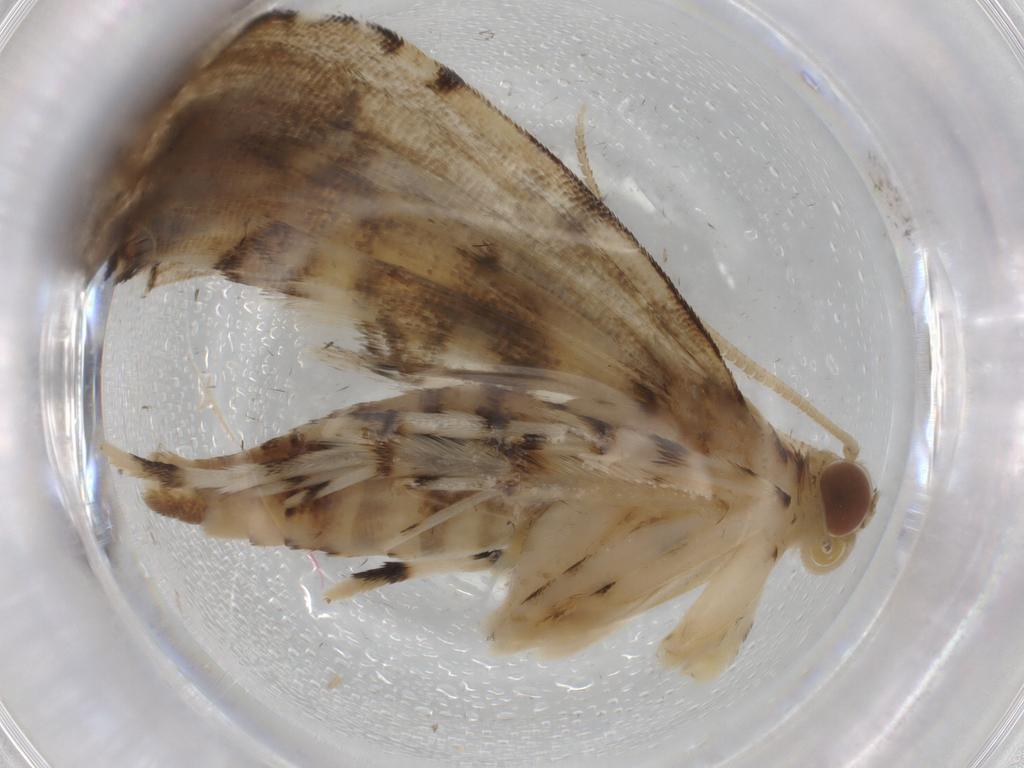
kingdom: Animalia
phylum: Arthropoda
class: Insecta
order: Lepidoptera
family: Crambidae
